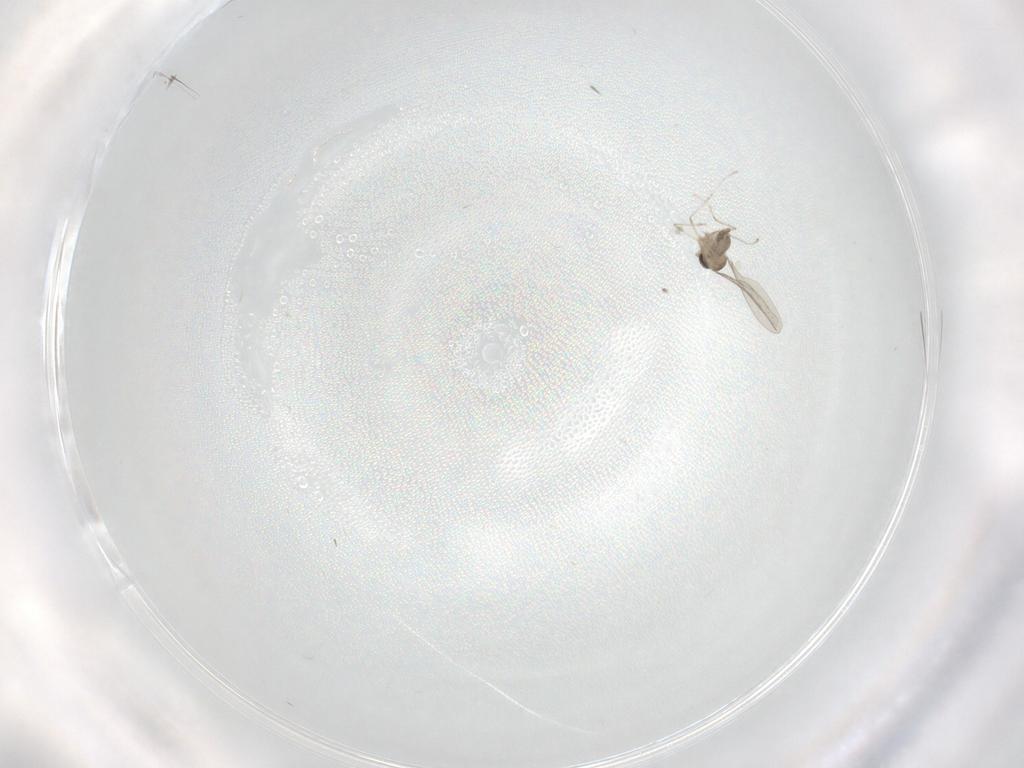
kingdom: Animalia
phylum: Arthropoda
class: Insecta
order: Diptera
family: Cecidomyiidae
